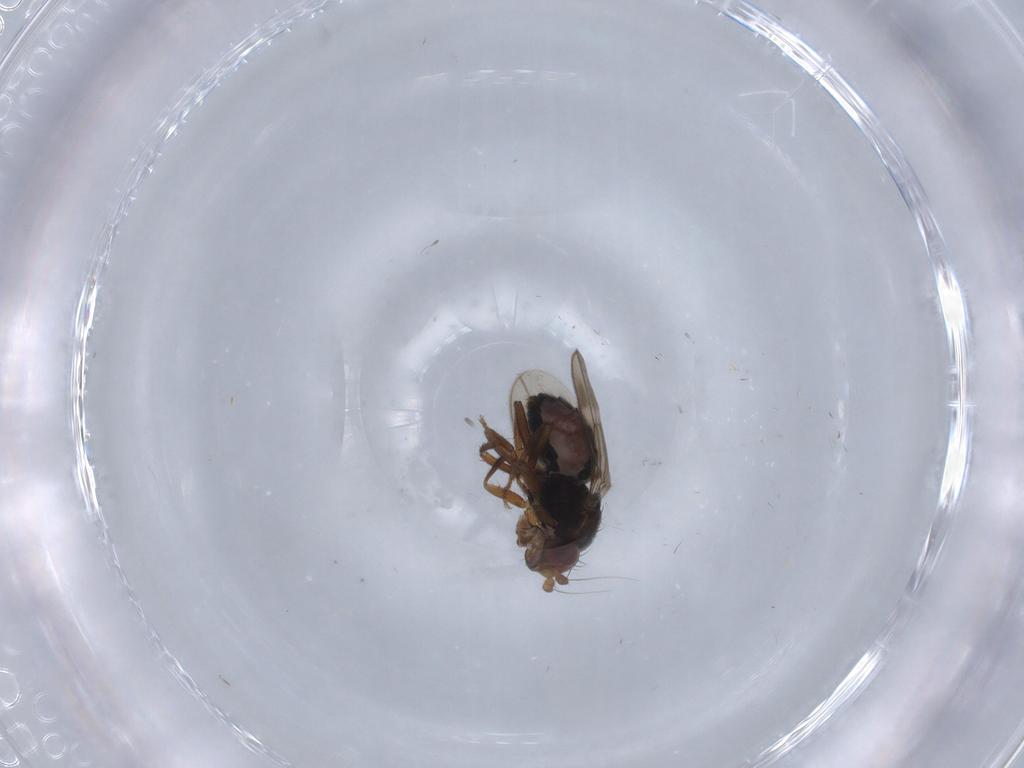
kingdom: Animalia
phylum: Arthropoda
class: Insecta
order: Diptera
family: Sphaeroceridae
